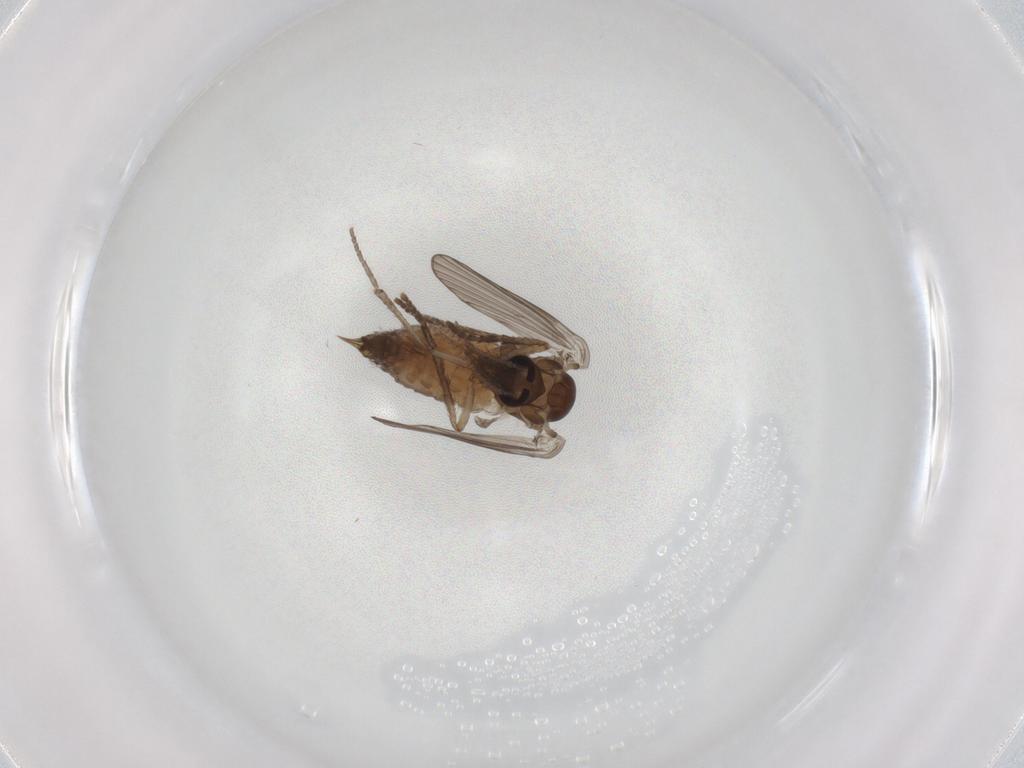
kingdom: Animalia
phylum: Arthropoda
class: Insecta
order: Diptera
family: Psychodidae
